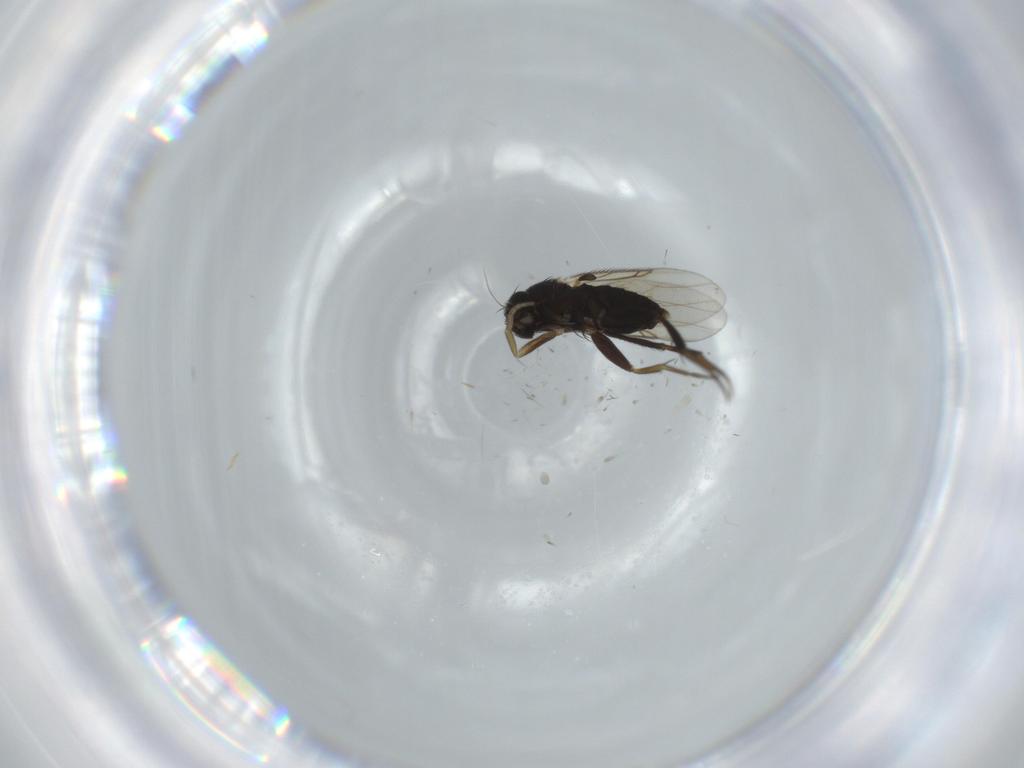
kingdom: Animalia
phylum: Arthropoda
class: Insecta
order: Diptera
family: Phoridae
